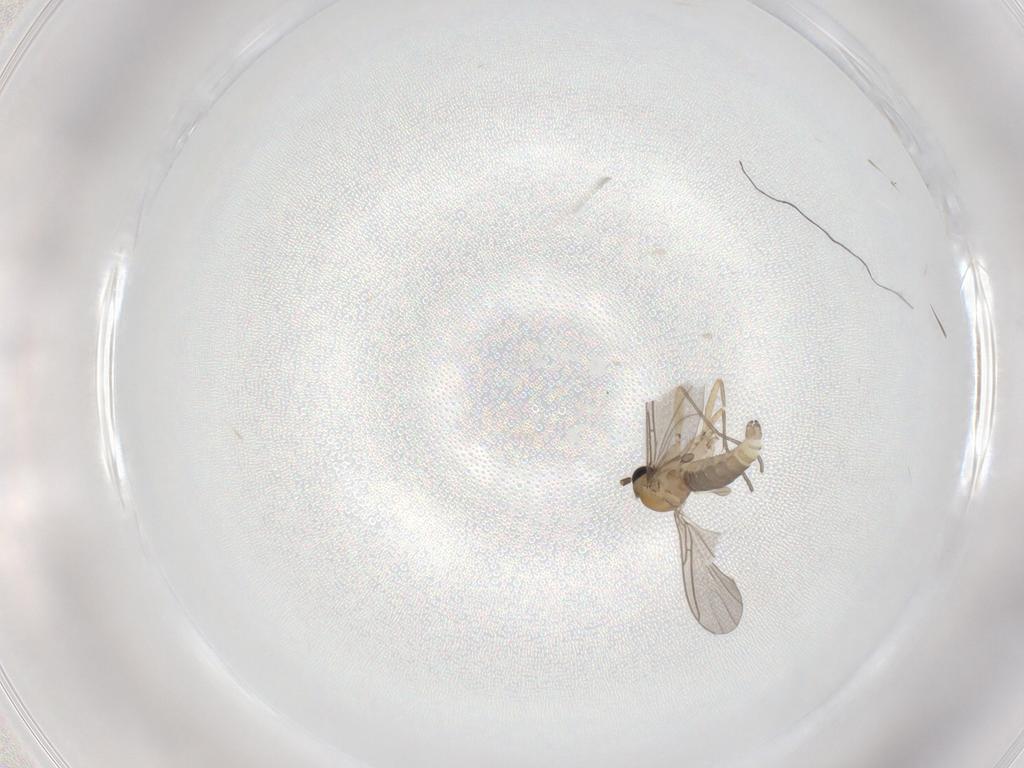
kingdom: Animalia
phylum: Arthropoda
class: Insecta
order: Diptera
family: Sciaridae
